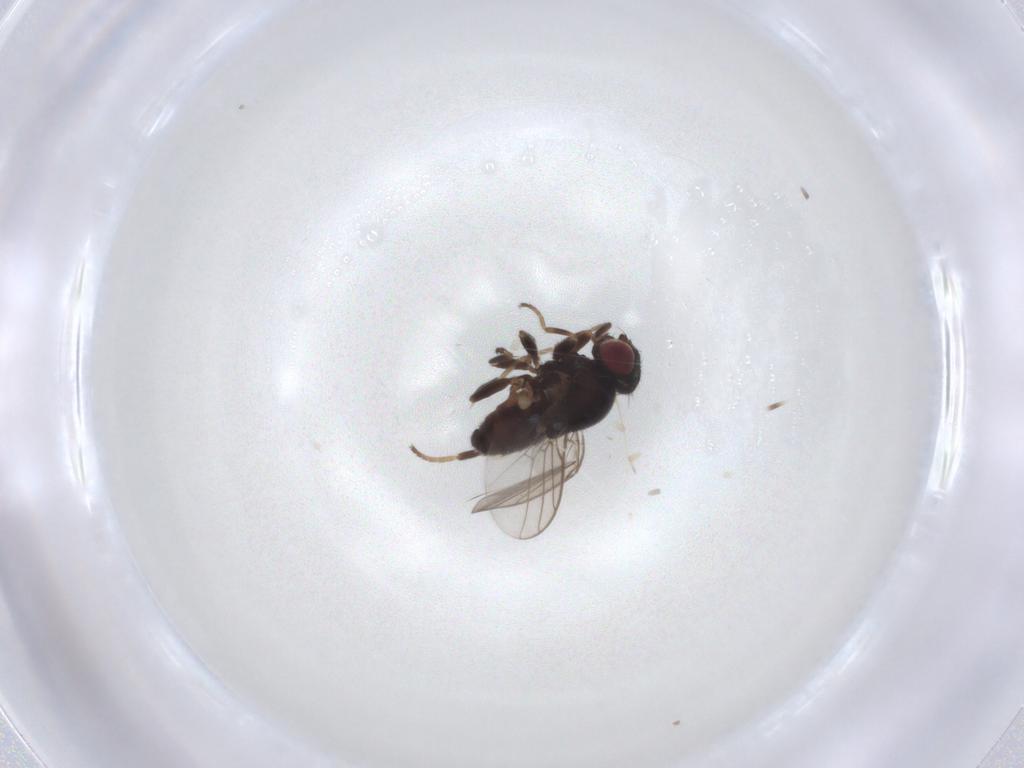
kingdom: Animalia
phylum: Arthropoda
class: Insecta
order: Diptera
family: Chloropidae
